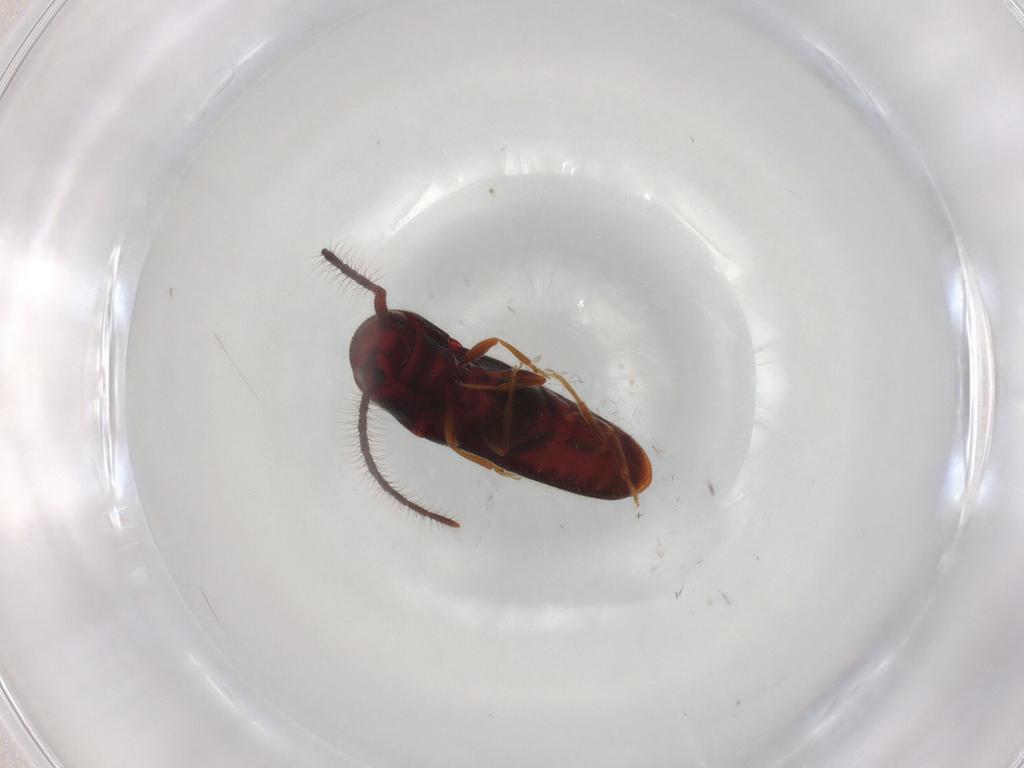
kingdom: Animalia
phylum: Arthropoda
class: Insecta
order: Coleoptera
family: Eucnemidae
